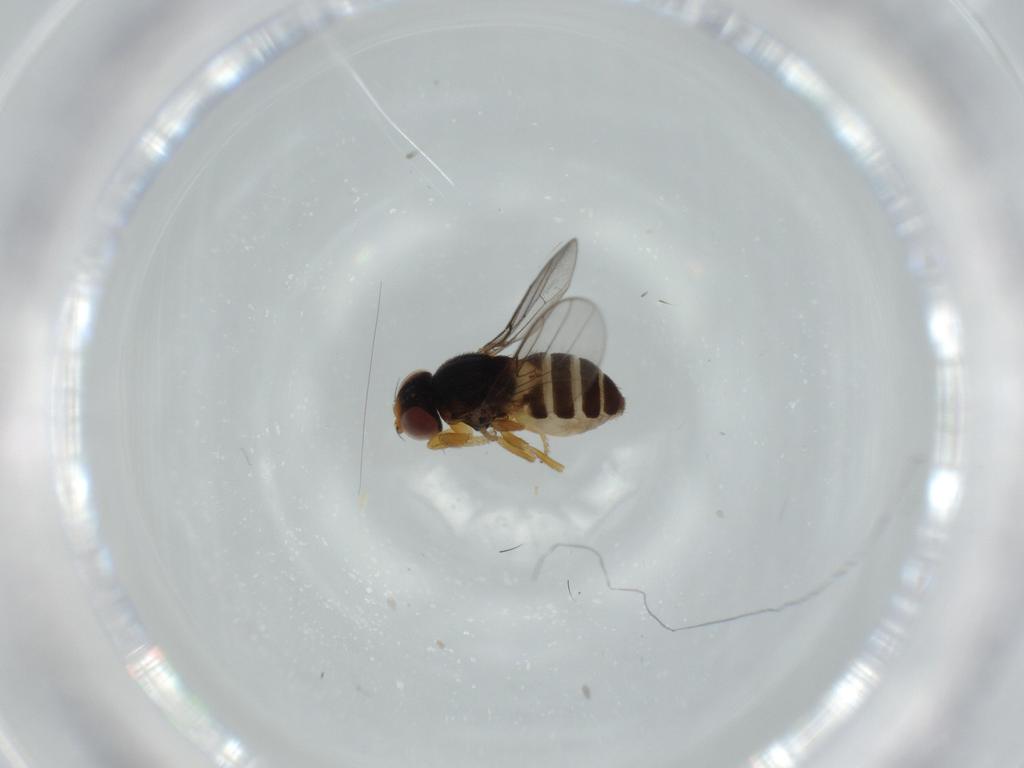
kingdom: Animalia
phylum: Arthropoda
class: Insecta
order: Diptera
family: Chloropidae
